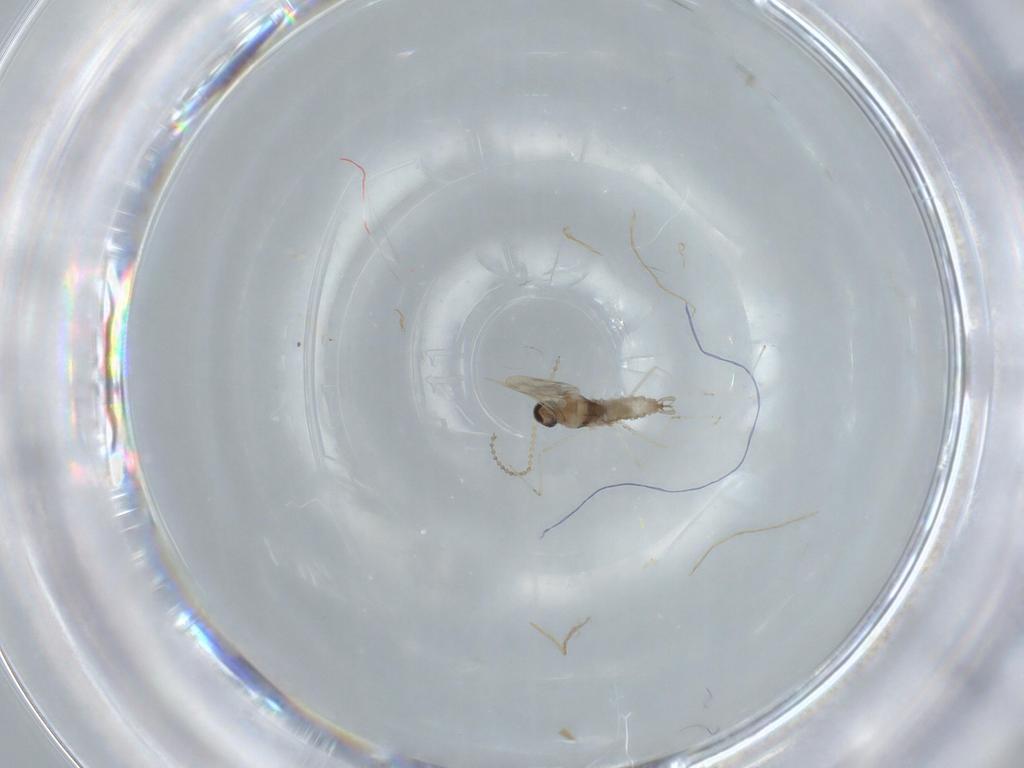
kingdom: Animalia
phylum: Arthropoda
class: Insecta
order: Diptera
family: Cecidomyiidae
